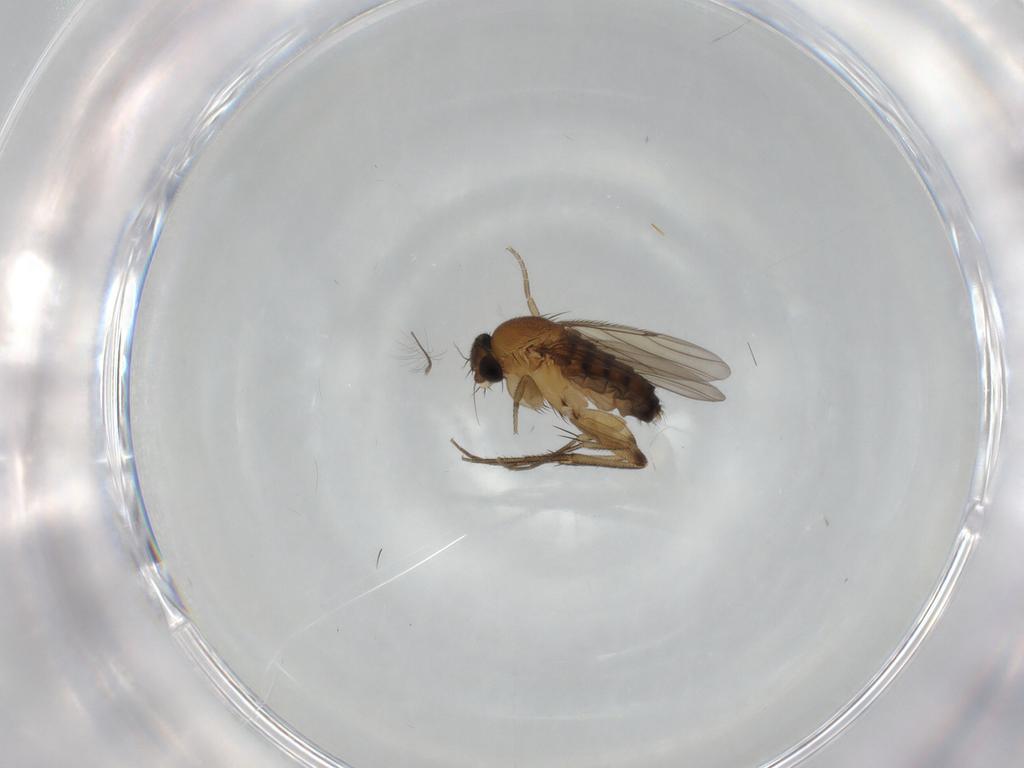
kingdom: Animalia
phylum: Arthropoda
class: Insecta
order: Diptera
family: Phoridae
